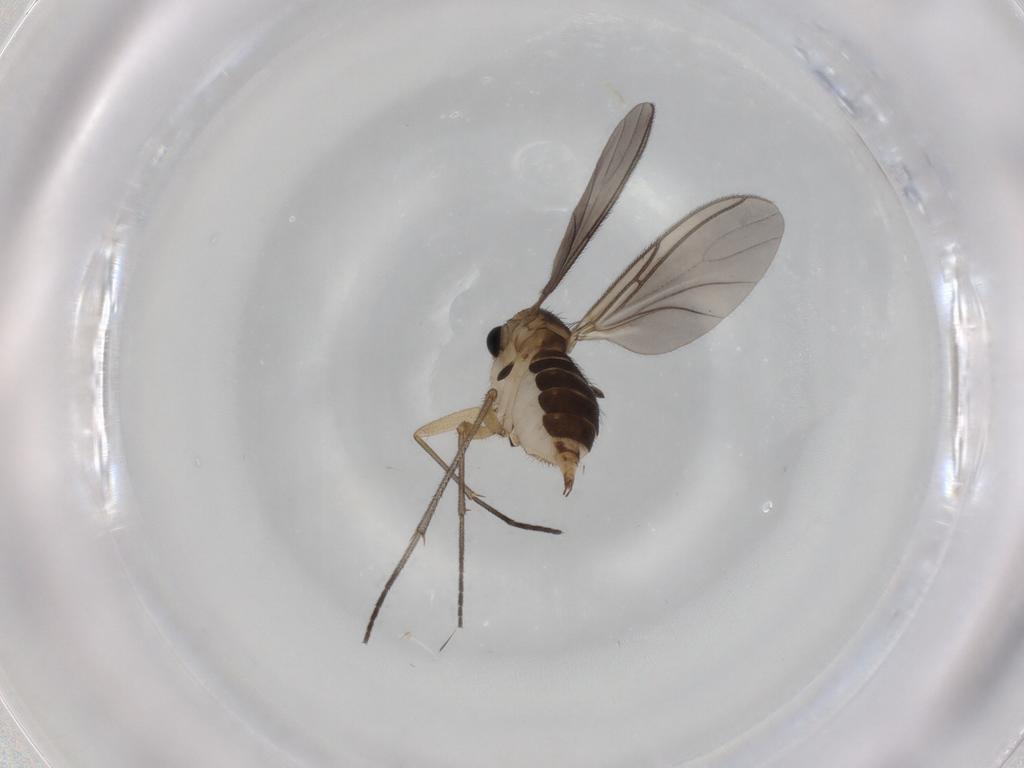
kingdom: Animalia
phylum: Arthropoda
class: Insecta
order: Diptera
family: Sciaridae
